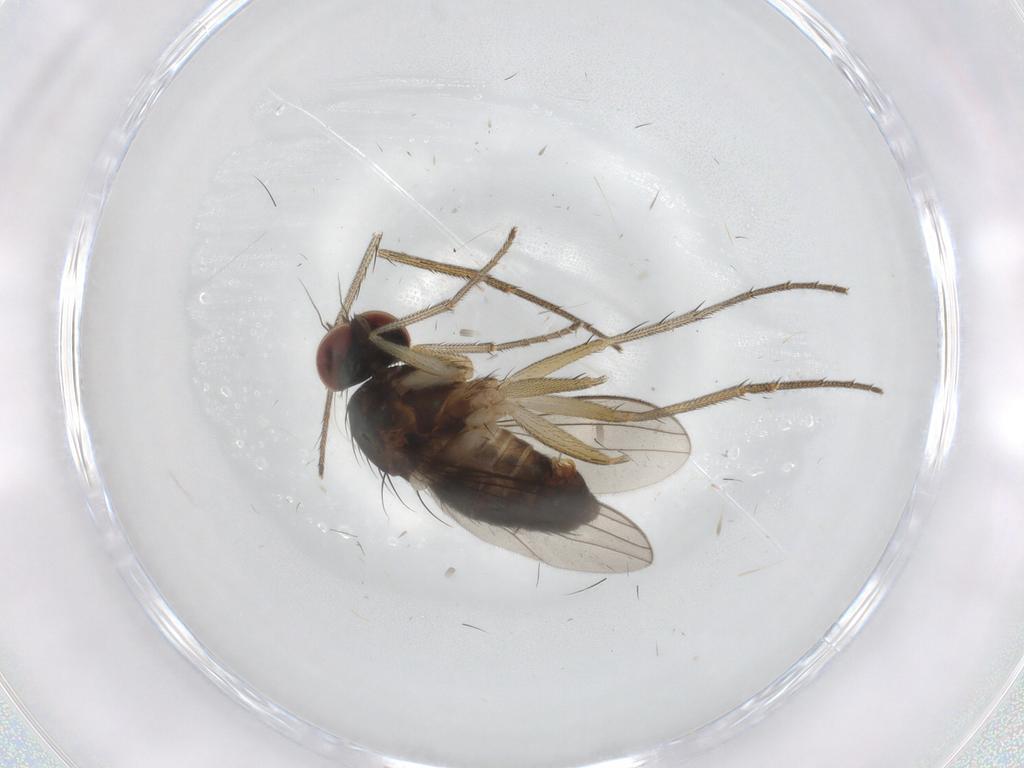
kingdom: Animalia
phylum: Arthropoda
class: Insecta
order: Diptera
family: Dolichopodidae
